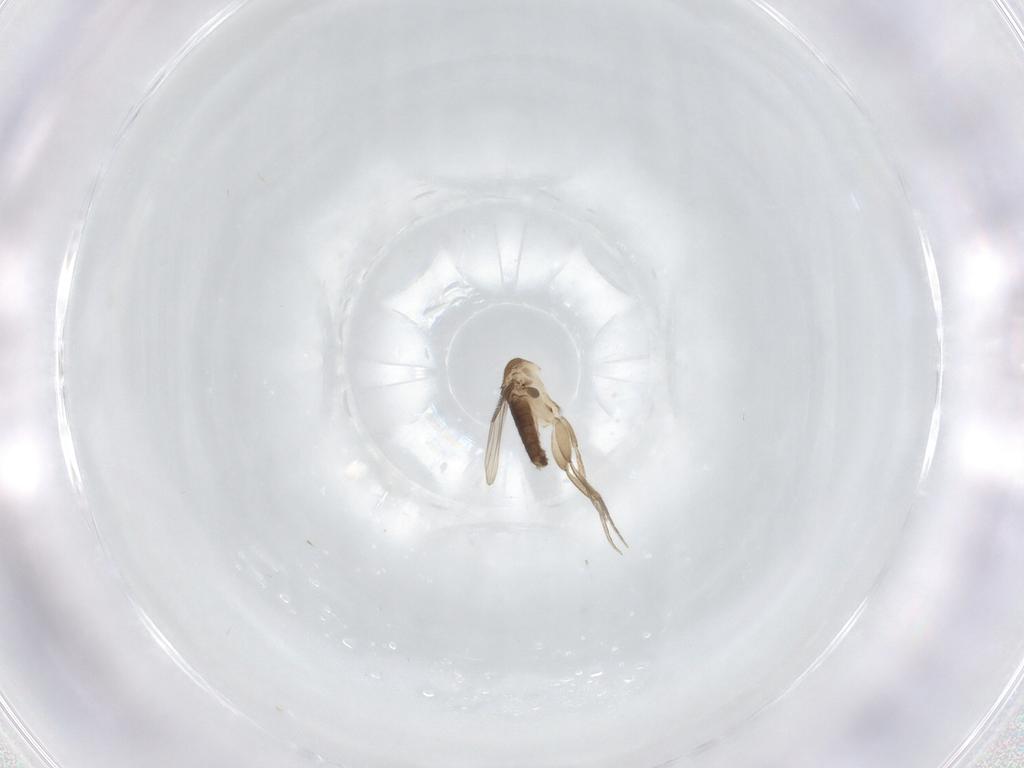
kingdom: Animalia
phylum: Arthropoda
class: Insecta
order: Diptera
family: Phoridae
